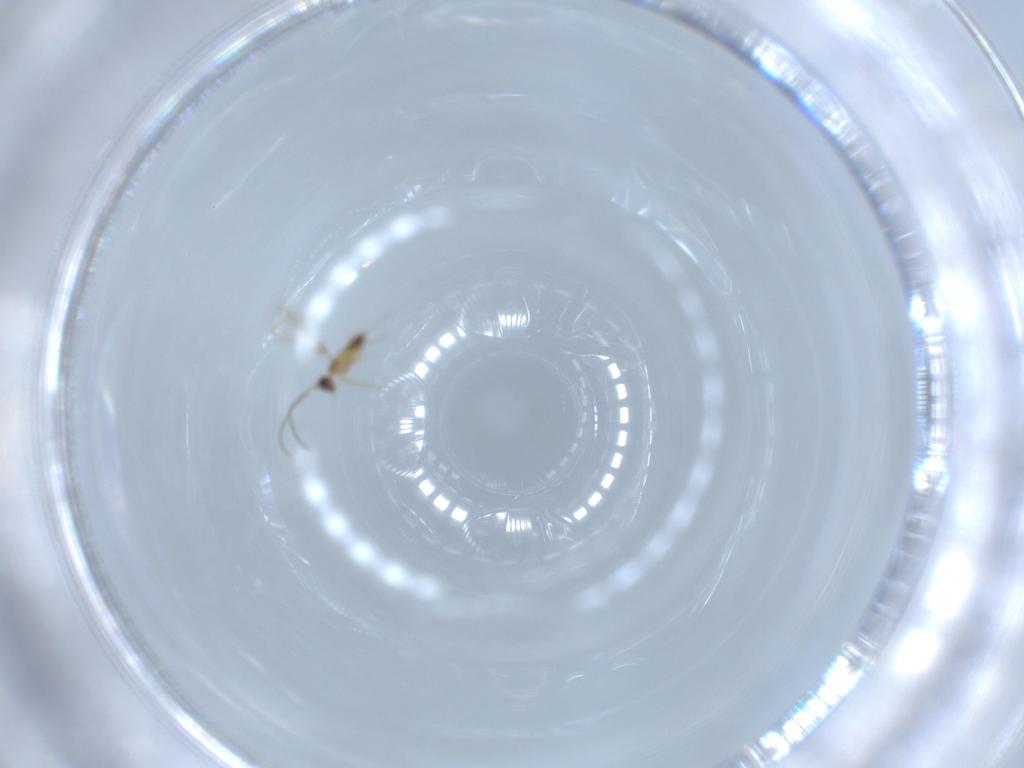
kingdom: Animalia
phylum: Arthropoda
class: Insecta
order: Hymenoptera
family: Mymaridae
